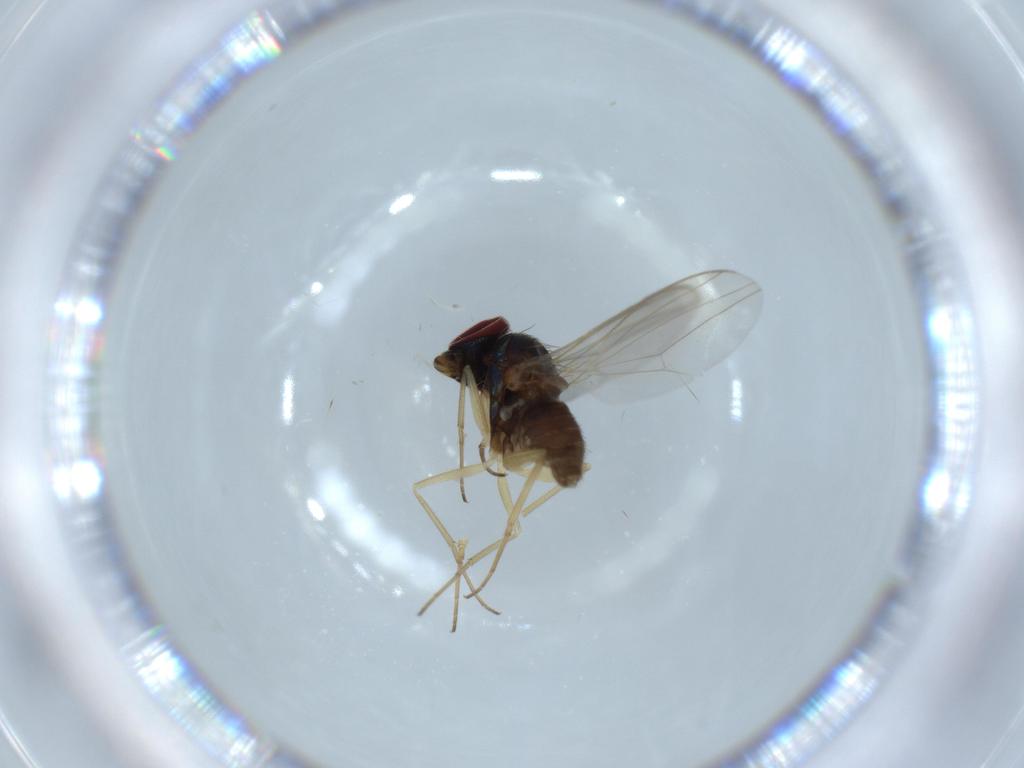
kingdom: Animalia
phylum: Arthropoda
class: Insecta
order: Diptera
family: Dolichopodidae
